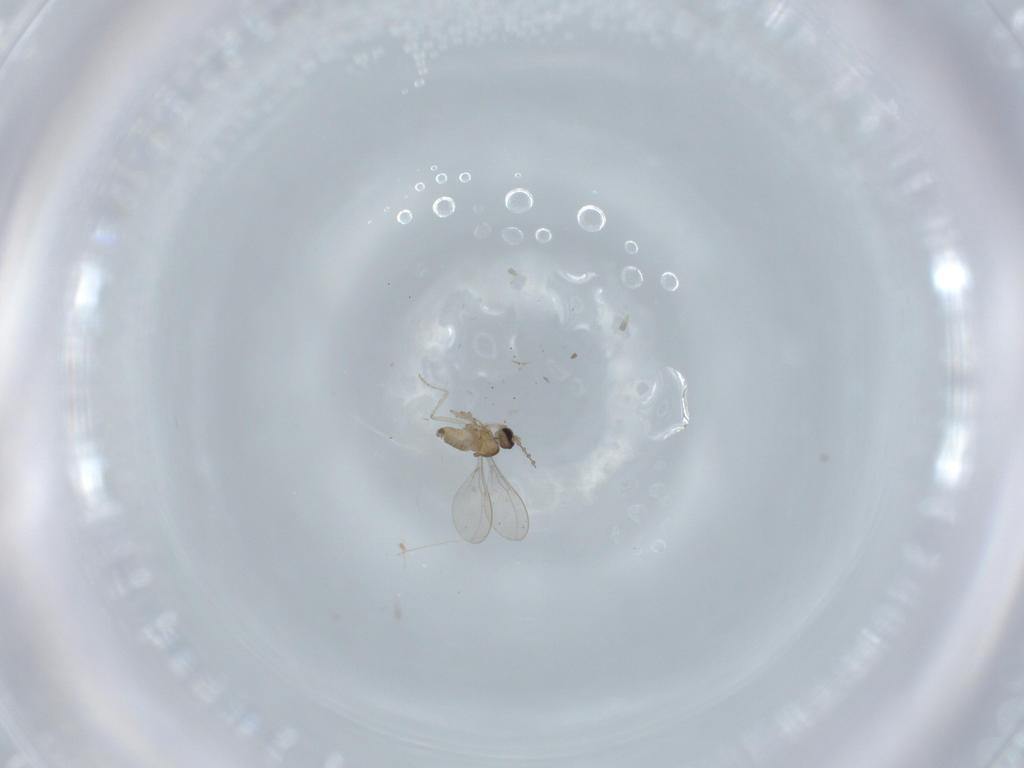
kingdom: Animalia
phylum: Arthropoda
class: Insecta
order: Diptera
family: Cecidomyiidae
